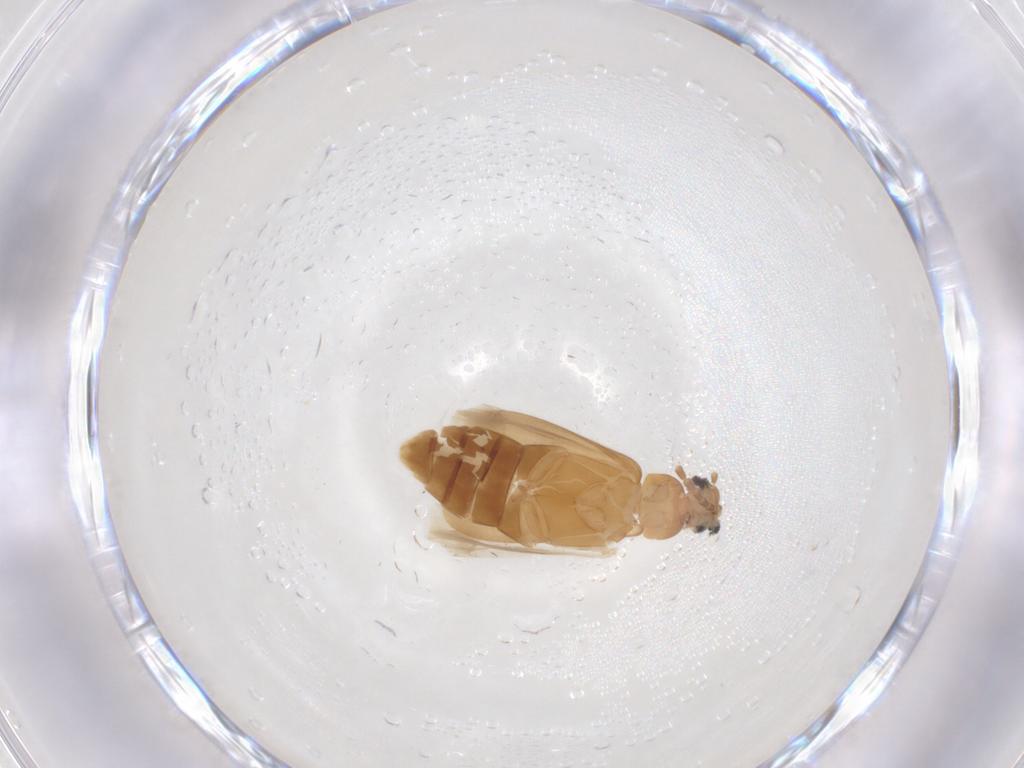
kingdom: Animalia
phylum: Arthropoda
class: Insecta
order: Coleoptera
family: Scraptiidae
